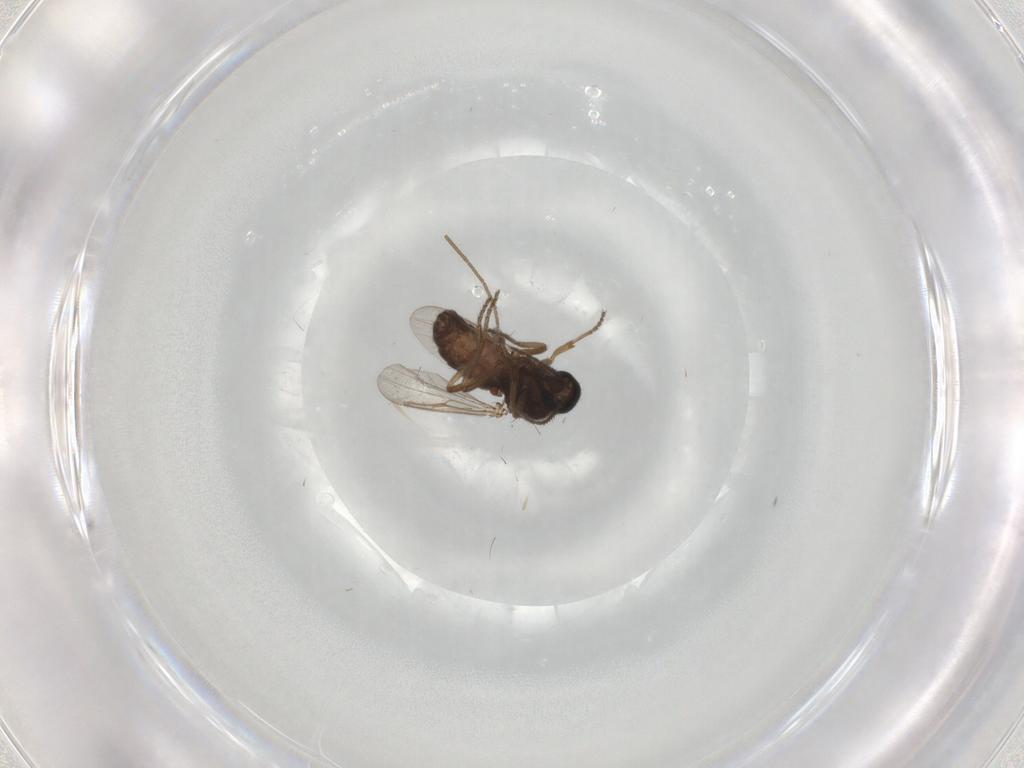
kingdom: Animalia
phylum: Arthropoda
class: Insecta
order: Diptera
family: Ceratopogonidae
